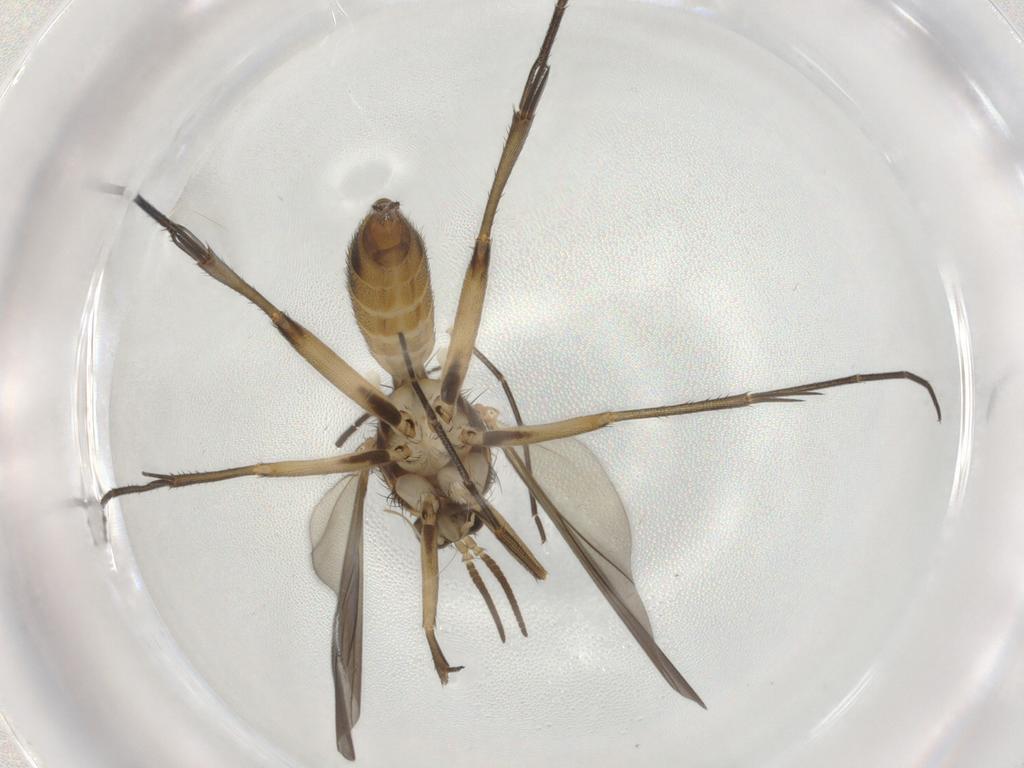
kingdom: Animalia
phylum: Arthropoda
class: Insecta
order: Diptera
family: Mycetophilidae
